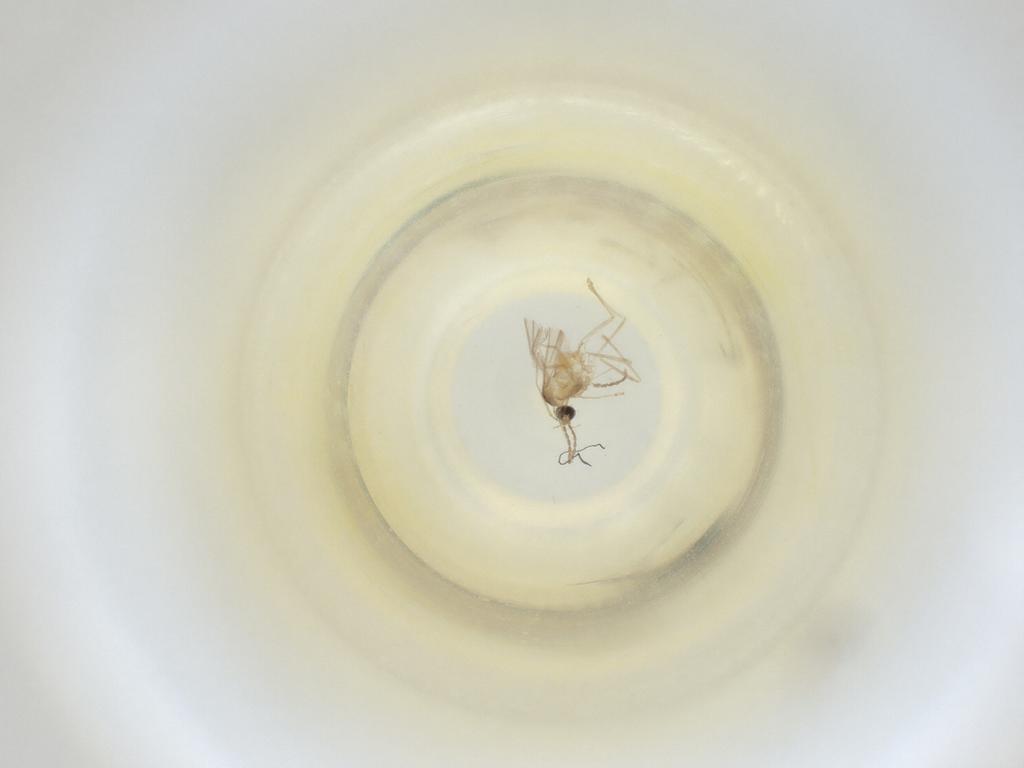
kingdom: Animalia
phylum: Arthropoda
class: Insecta
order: Diptera
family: Cecidomyiidae
